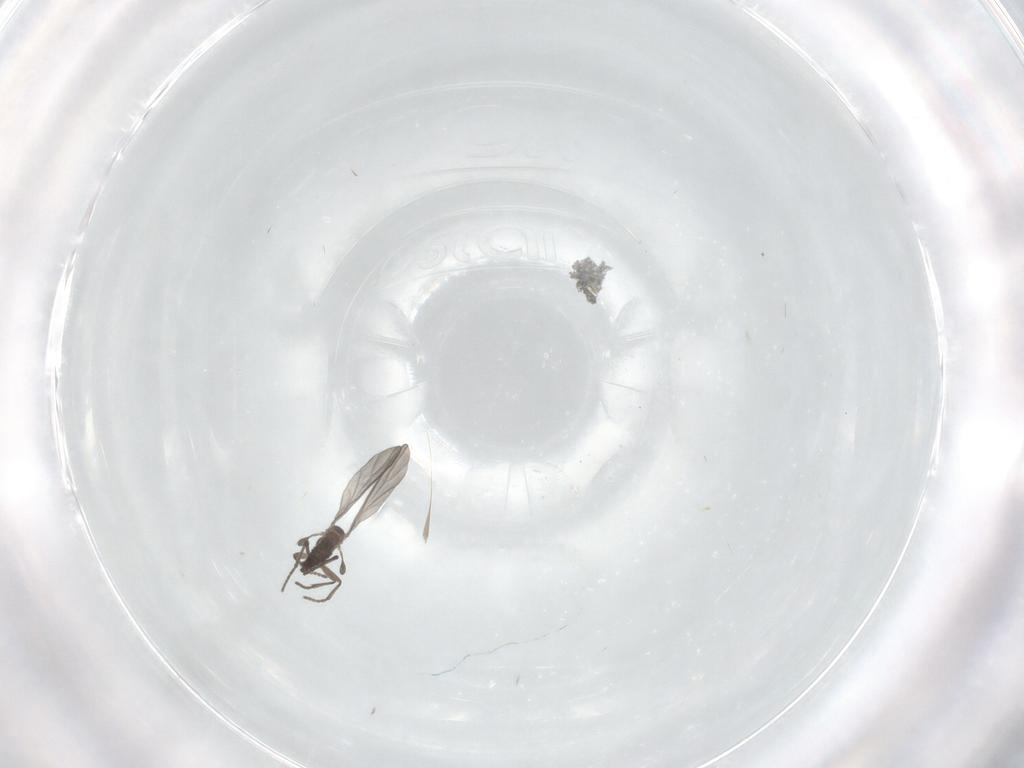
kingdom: Animalia
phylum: Arthropoda
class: Insecta
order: Diptera
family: Sciaridae
